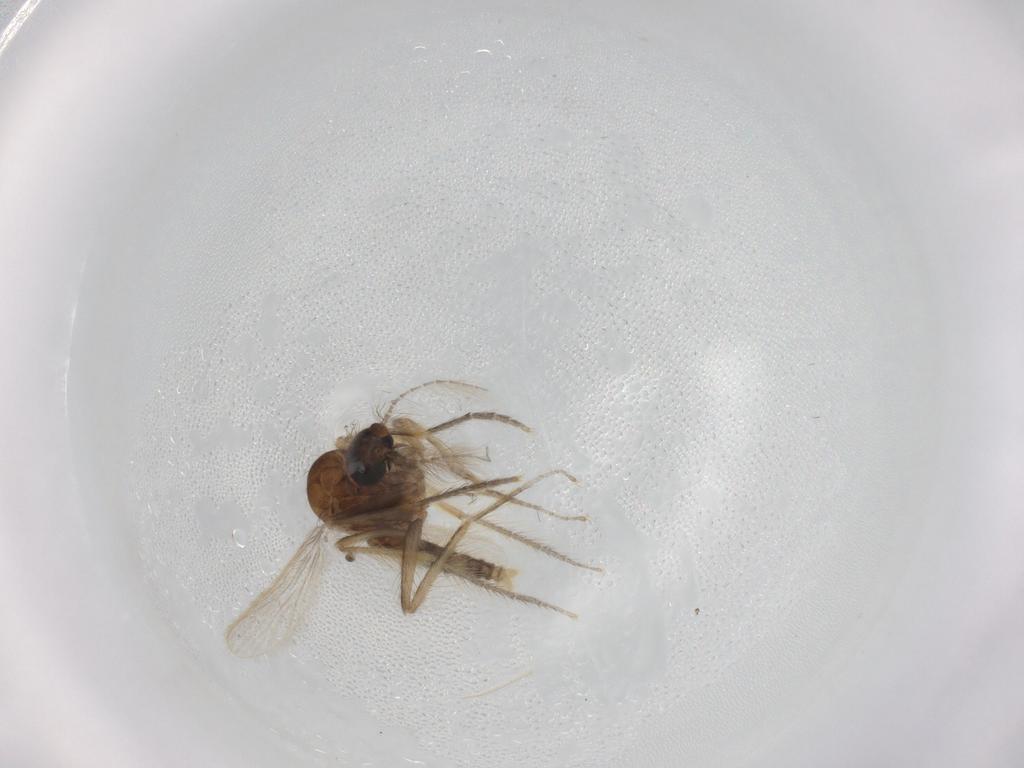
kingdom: Animalia
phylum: Arthropoda
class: Insecta
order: Diptera
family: Corethrellidae
